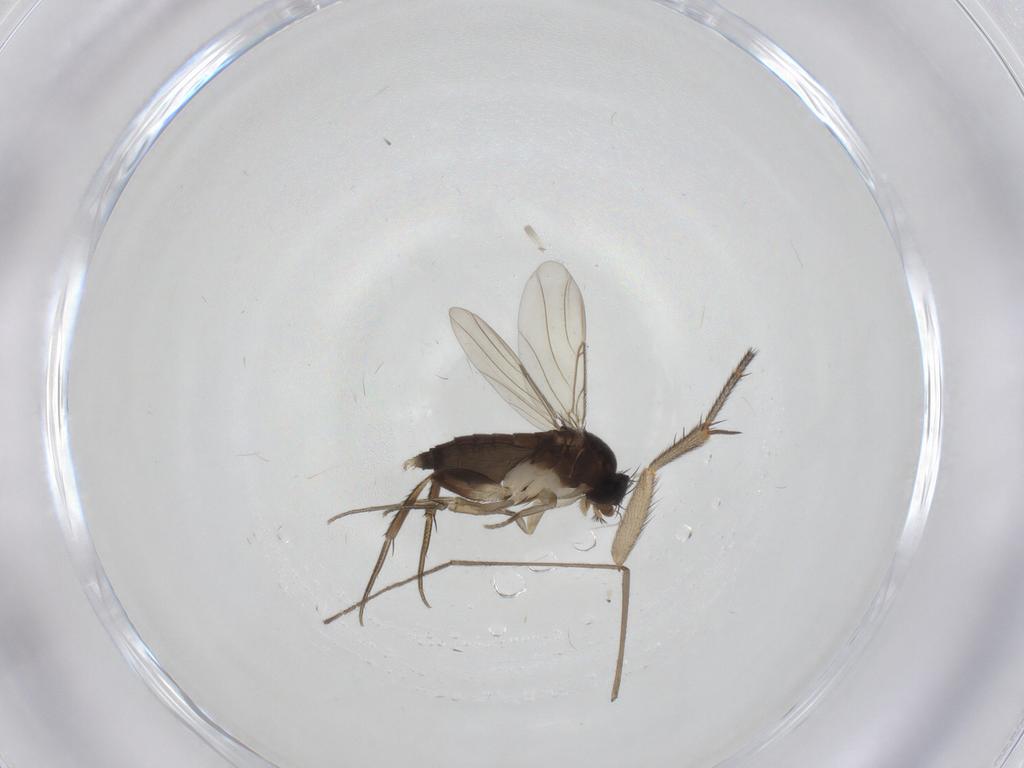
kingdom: Animalia
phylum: Arthropoda
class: Insecta
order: Diptera
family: Mycetophilidae
